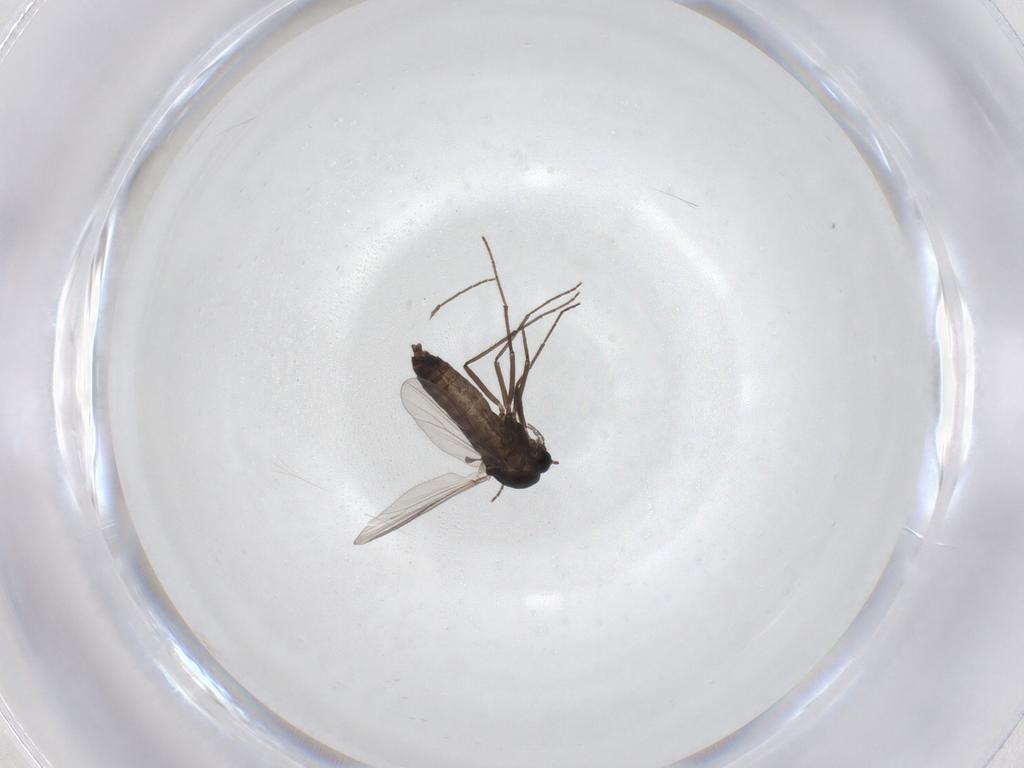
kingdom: Animalia
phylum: Arthropoda
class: Insecta
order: Diptera
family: Chironomidae
